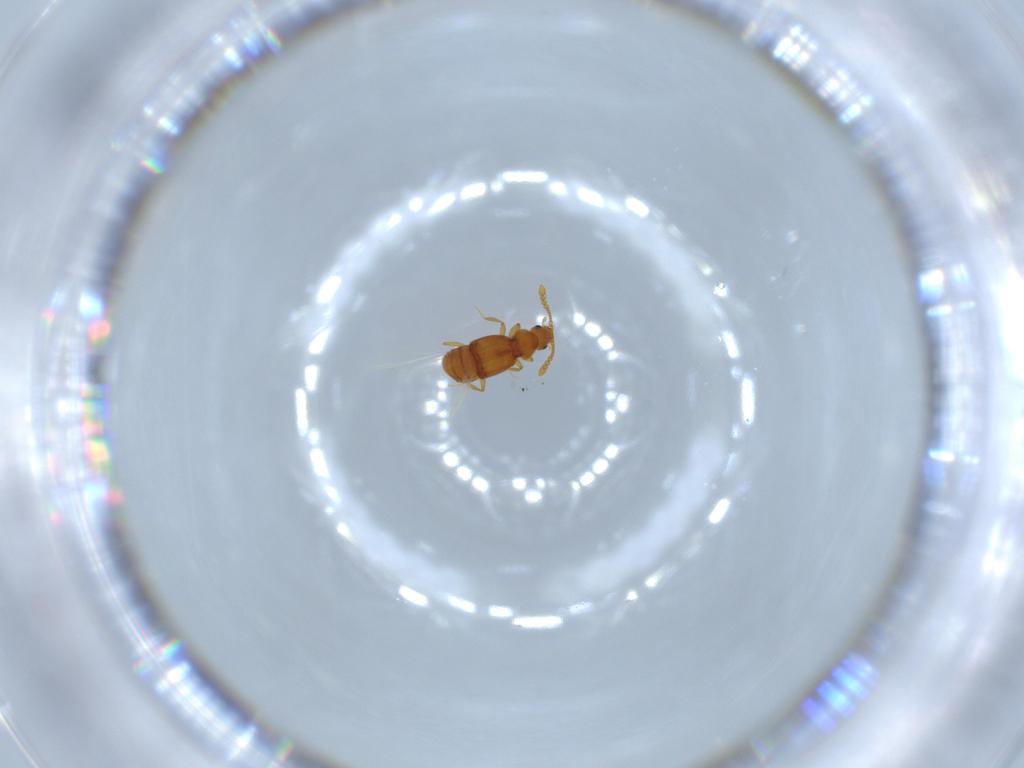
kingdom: Animalia
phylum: Arthropoda
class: Insecta
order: Coleoptera
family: Staphylinidae
